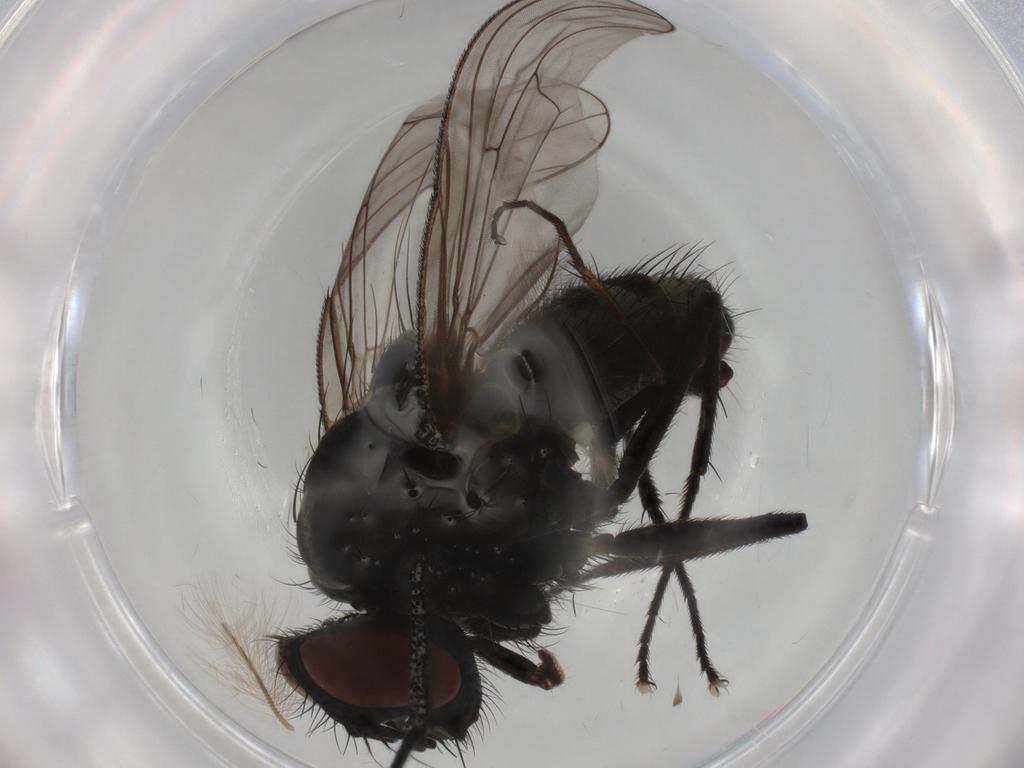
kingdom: Animalia
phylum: Arthropoda
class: Insecta
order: Diptera
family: Muscidae
